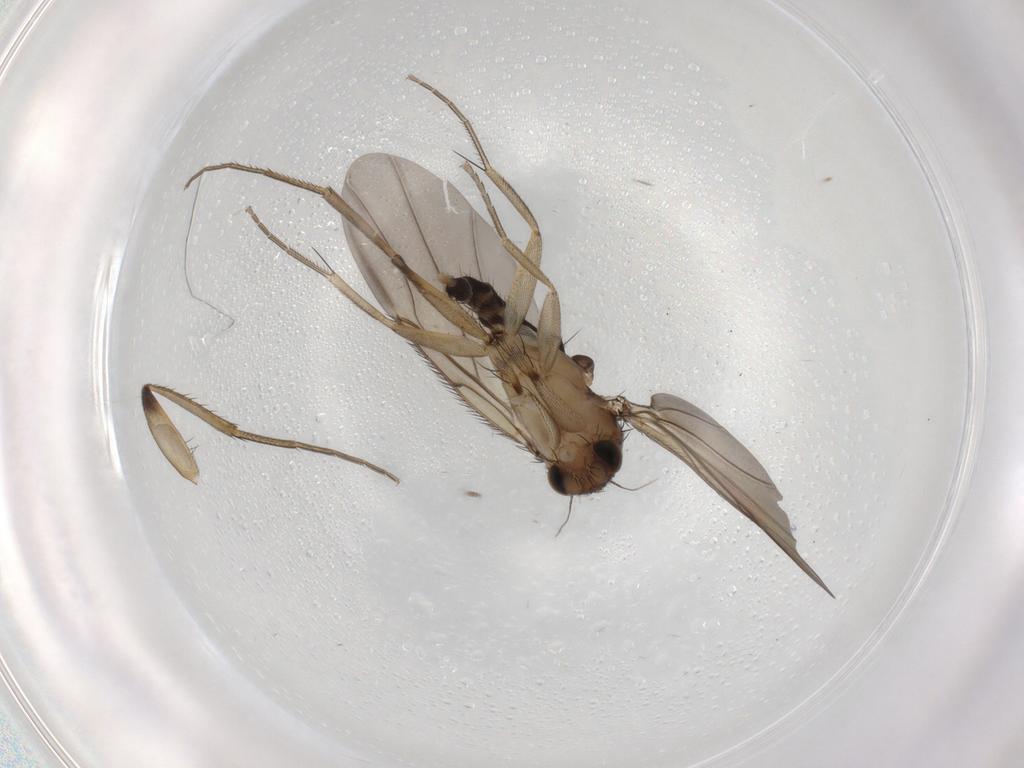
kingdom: Animalia
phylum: Arthropoda
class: Insecta
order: Diptera
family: Phoridae
